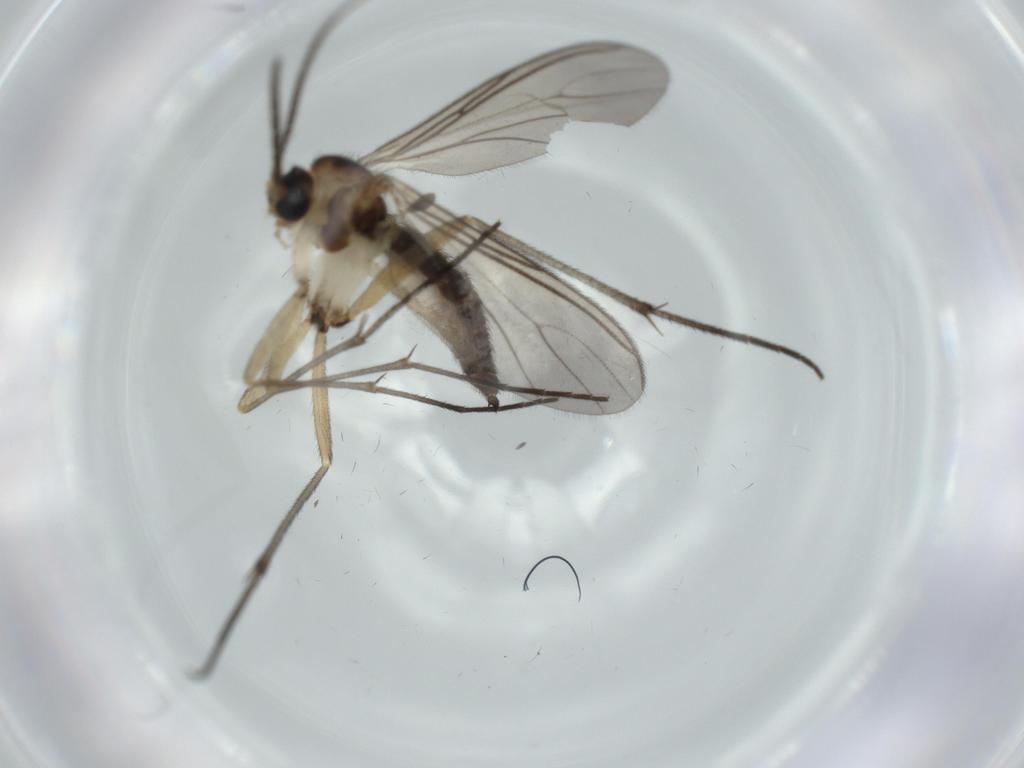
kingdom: Animalia
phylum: Arthropoda
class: Insecta
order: Diptera
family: Sciaridae
